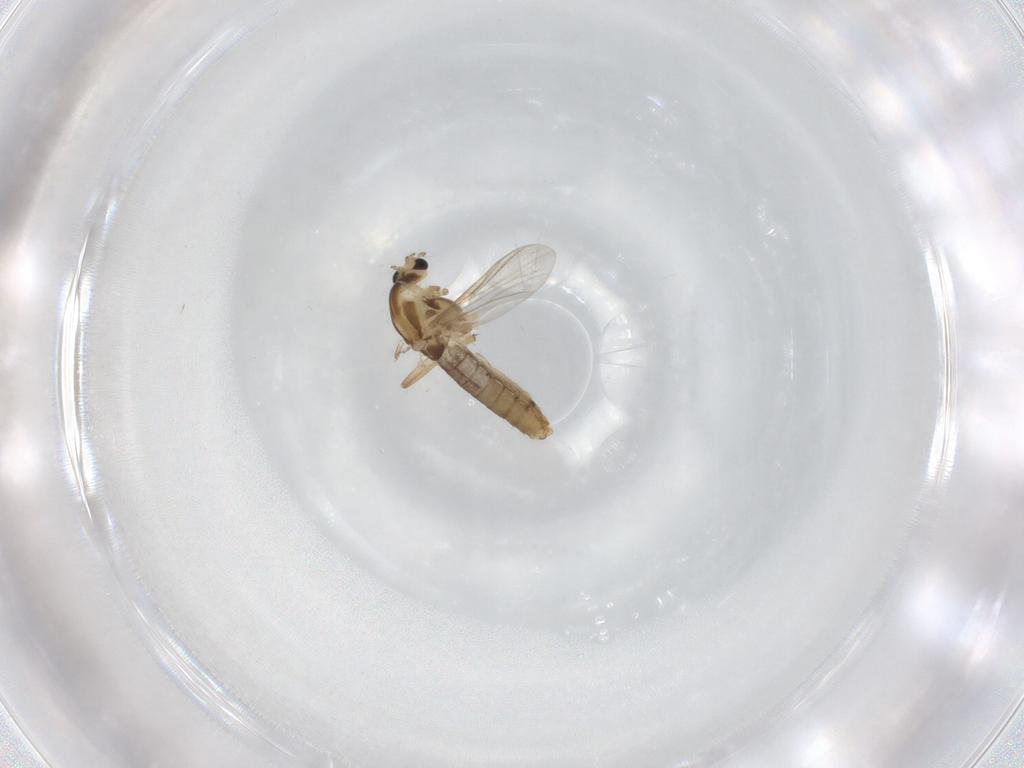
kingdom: Animalia
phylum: Arthropoda
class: Insecta
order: Diptera
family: Chironomidae
